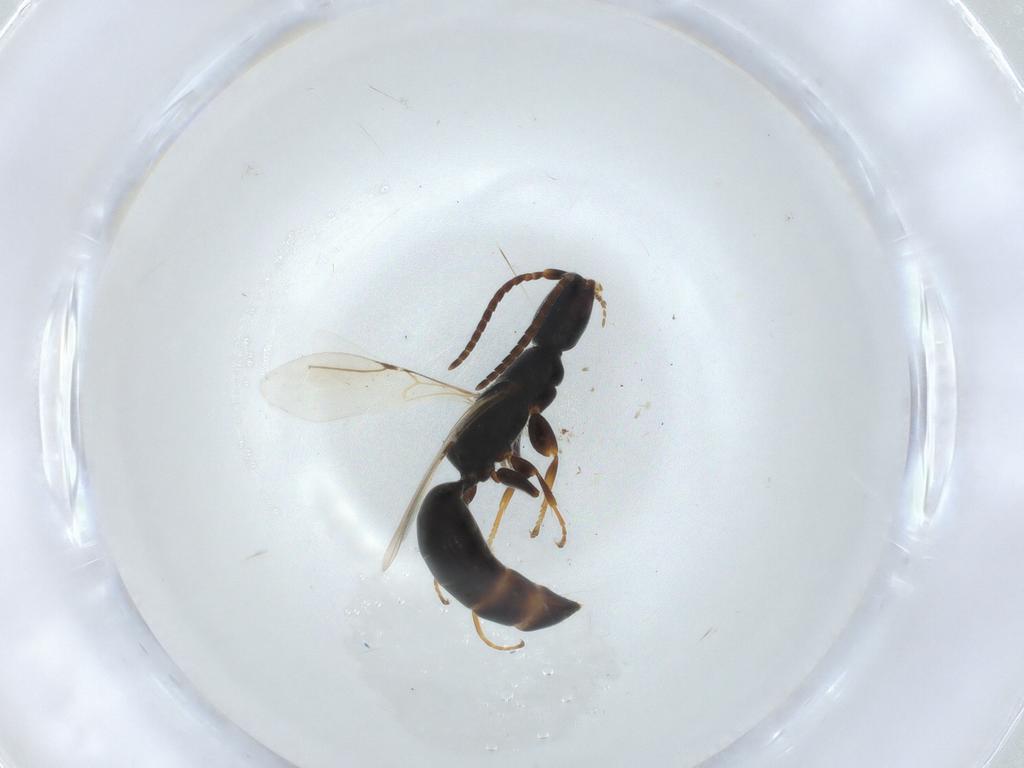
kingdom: Animalia
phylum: Arthropoda
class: Insecta
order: Hymenoptera
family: Bethylidae
